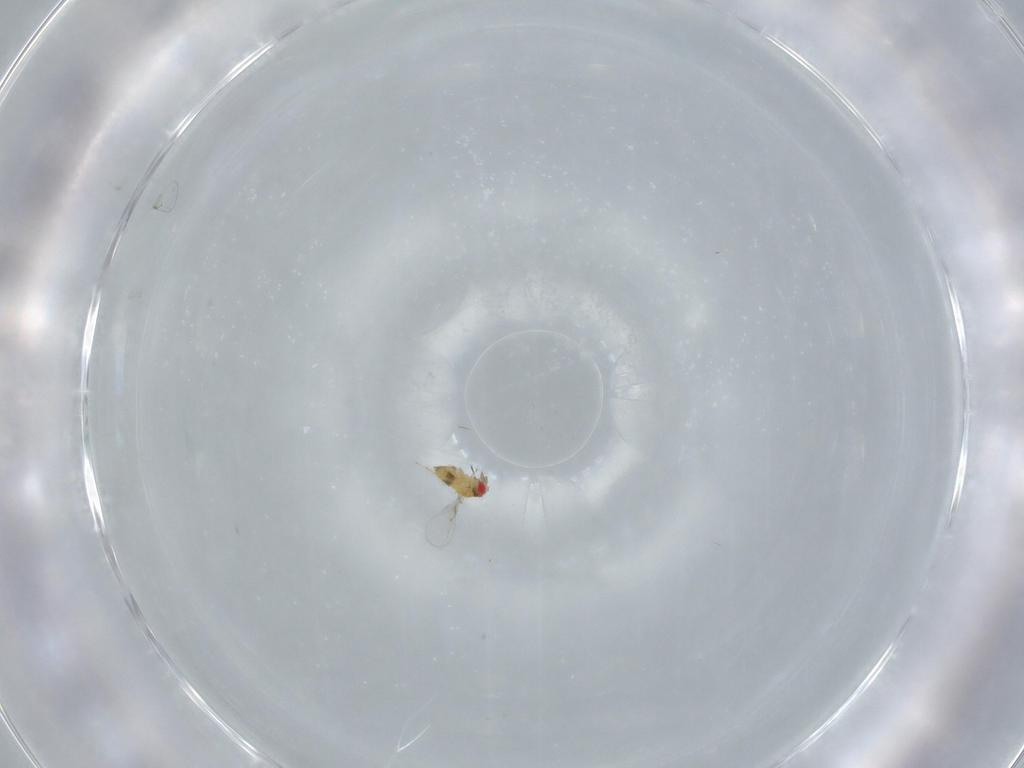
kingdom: Animalia
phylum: Arthropoda
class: Insecta
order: Hymenoptera
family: Trichogrammatidae
